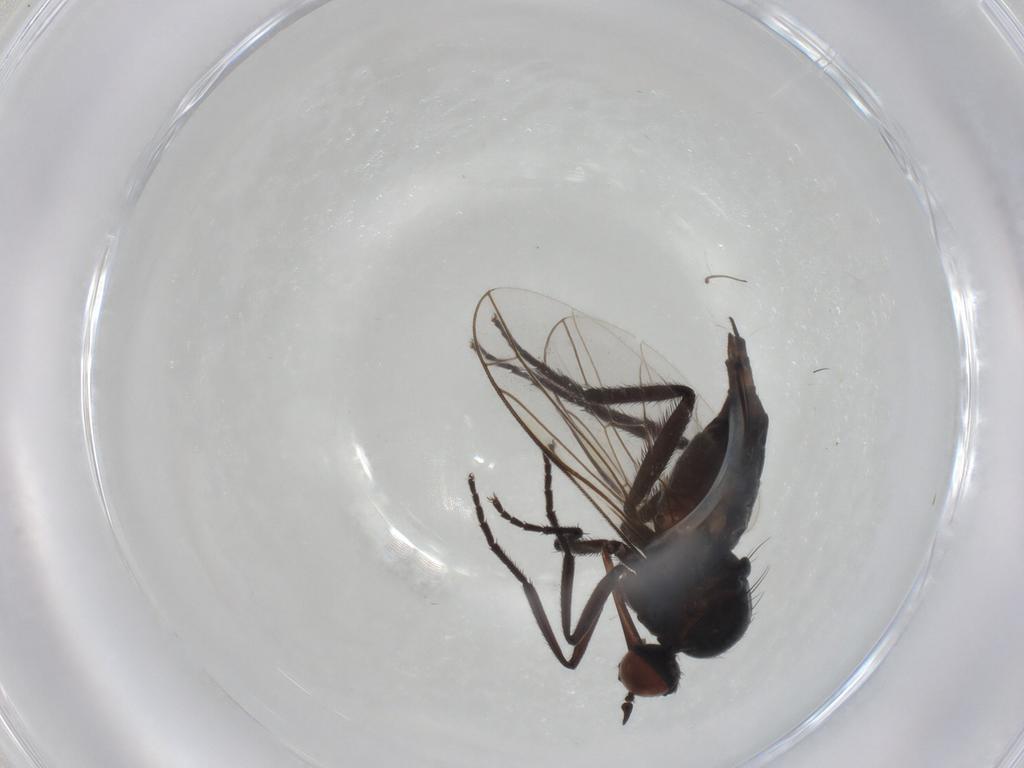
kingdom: Animalia
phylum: Arthropoda
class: Insecta
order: Diptera
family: Empididae
